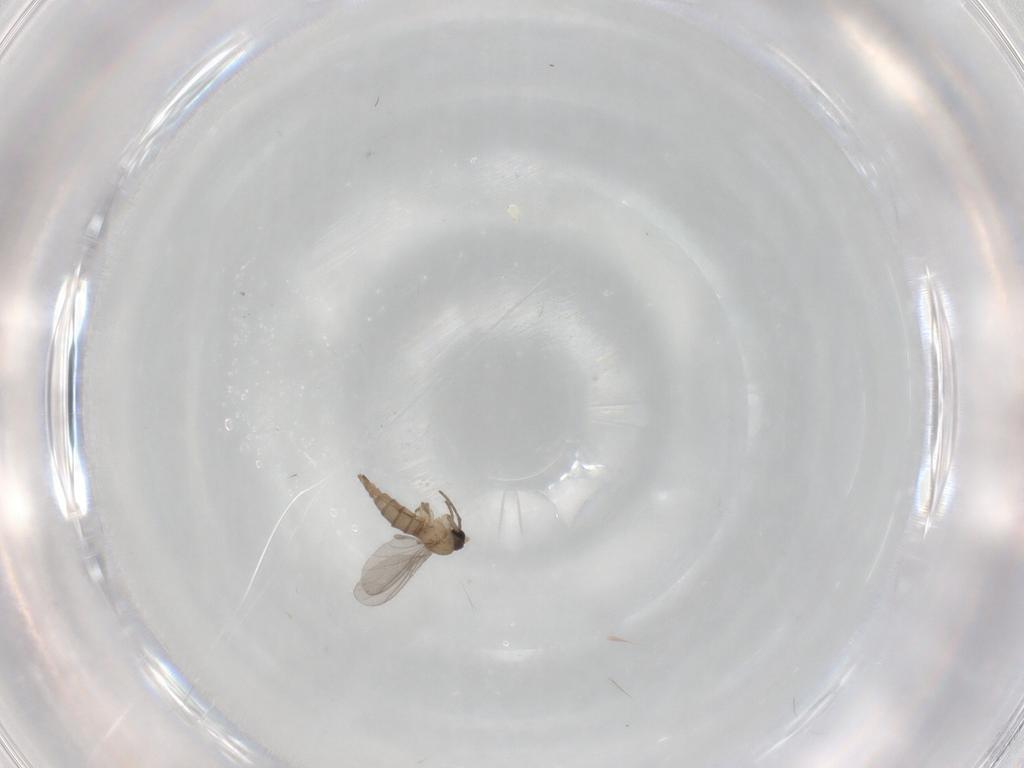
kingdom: Animalia
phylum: Arthropoda
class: Insecta
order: Diptera
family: Sciaridae
